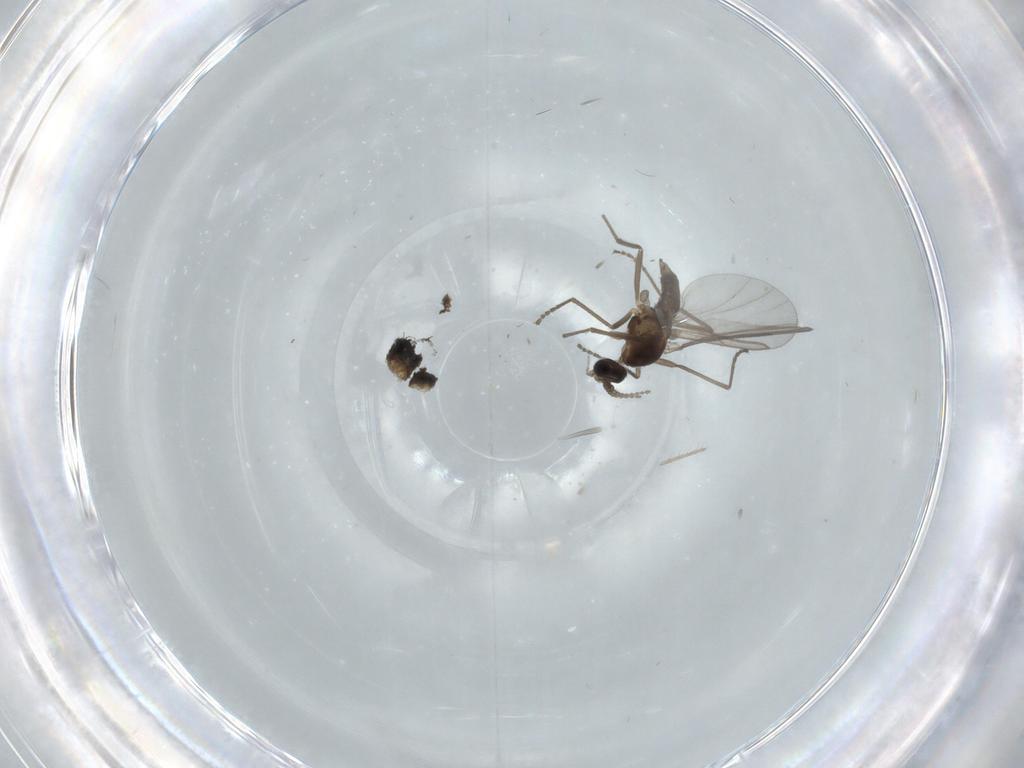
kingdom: Animalia
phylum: Arthropoda
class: Insecta
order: Diptera
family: Cecidomyiidae
